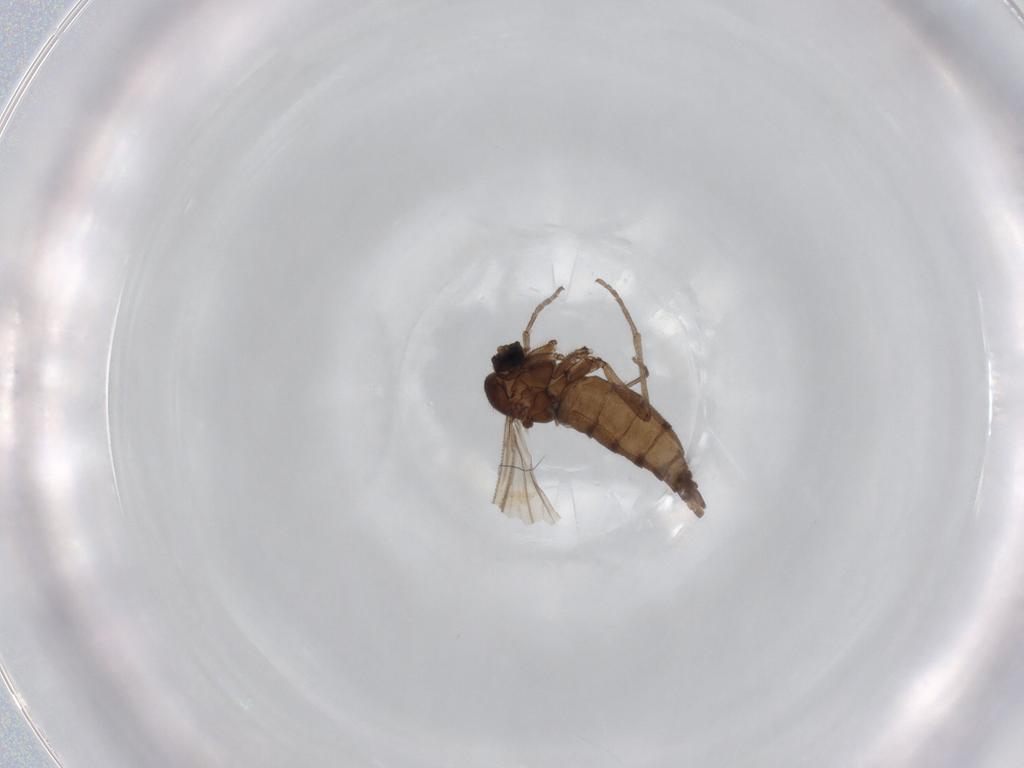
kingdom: Animalia
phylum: Arthropoda
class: Insecta
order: Diptera
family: Sciaridae
